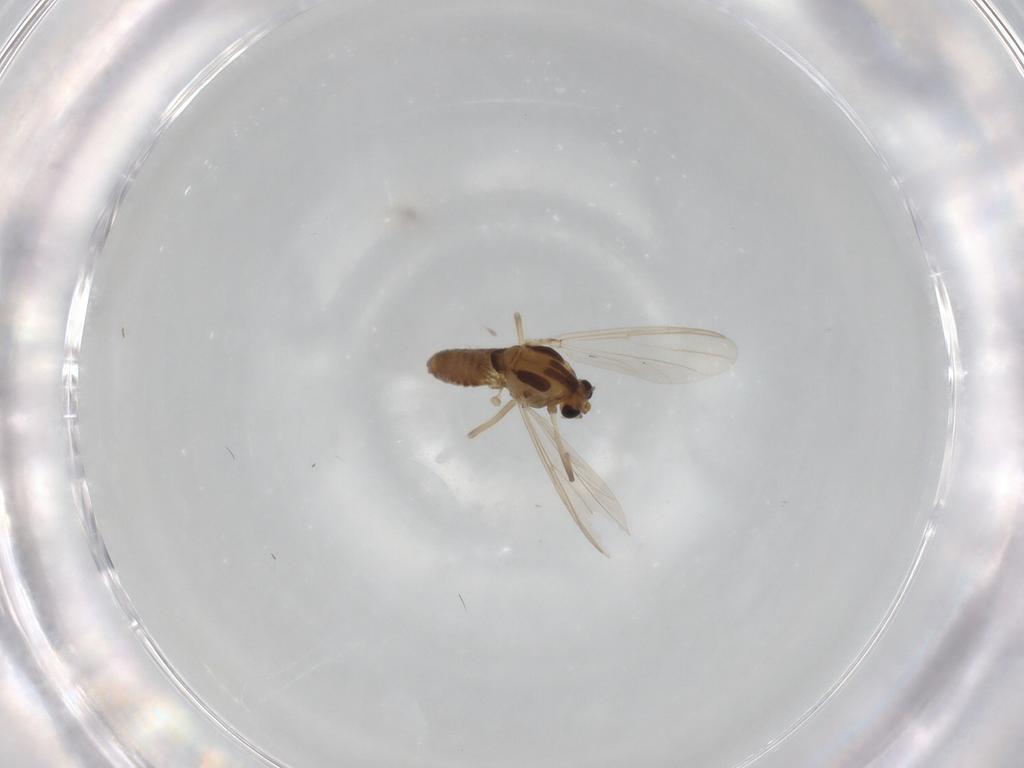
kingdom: Animalia
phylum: Arthropoda
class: Insecta
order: Diptera
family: Chironomidae
